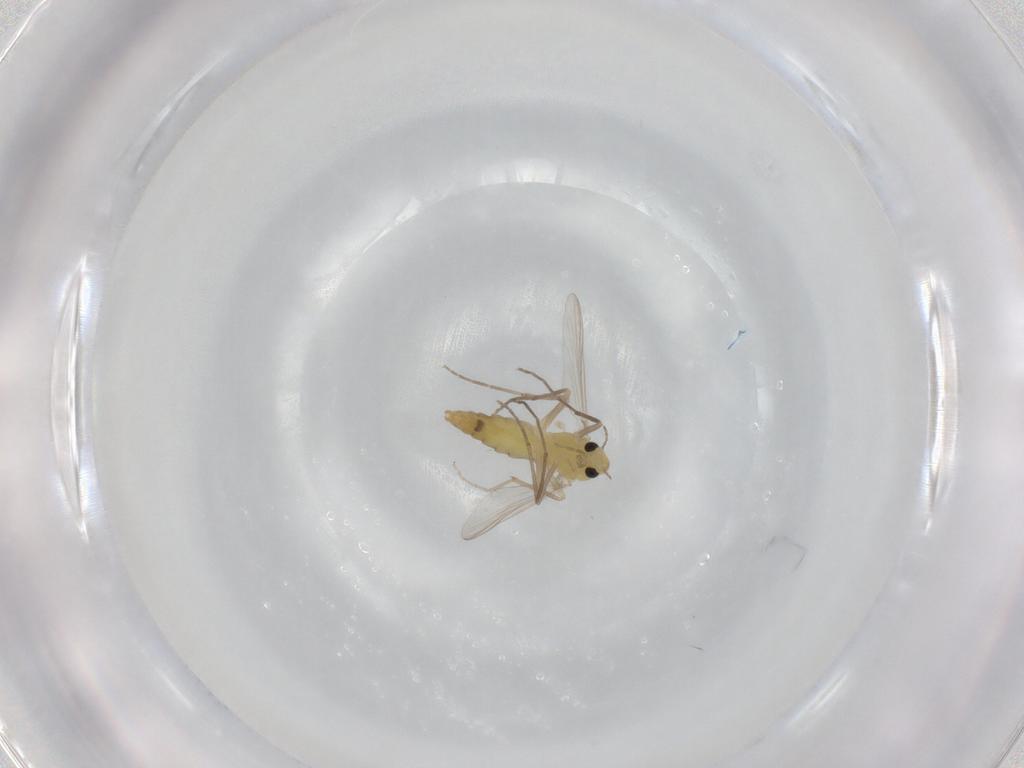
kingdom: Animalia
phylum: Arthropoda
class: Insecta
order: Diptera
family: Chironomidae
